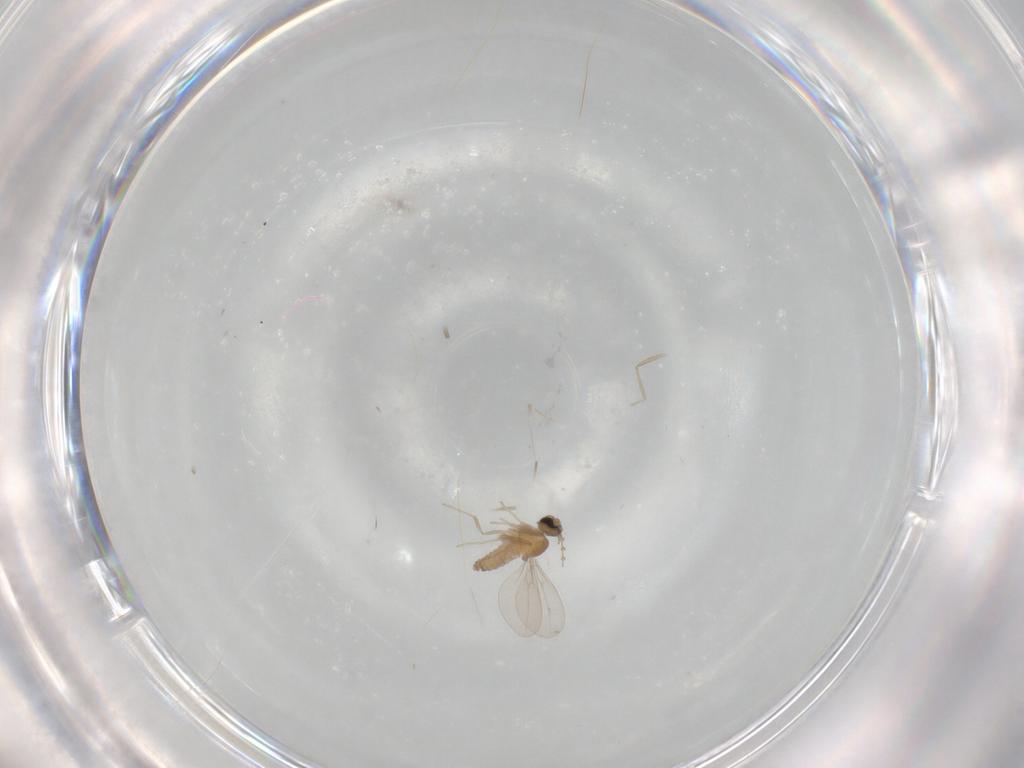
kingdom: Animalia
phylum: Arthropoda
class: Insecta
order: Diptera
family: Cecidomyiidae
